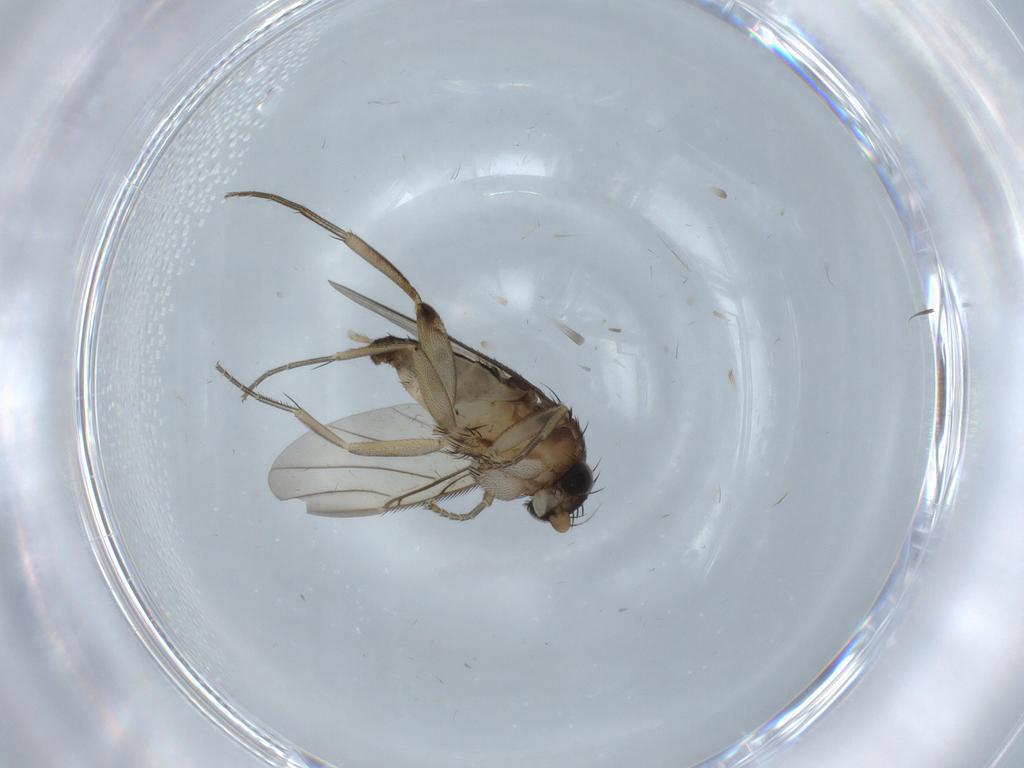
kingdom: Animalia
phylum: Arthropoda
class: Insecta
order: Diptera
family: Phoridae
